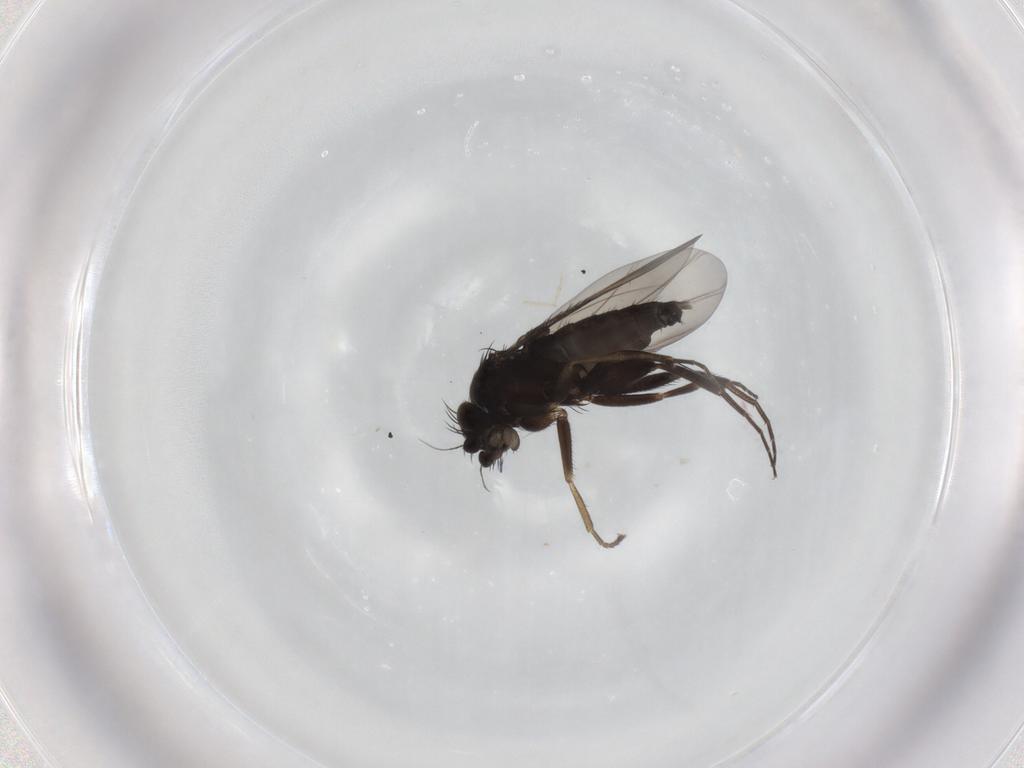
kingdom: Animalia
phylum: Arthropoda
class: Insecta
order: Diptera
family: Phoridae
